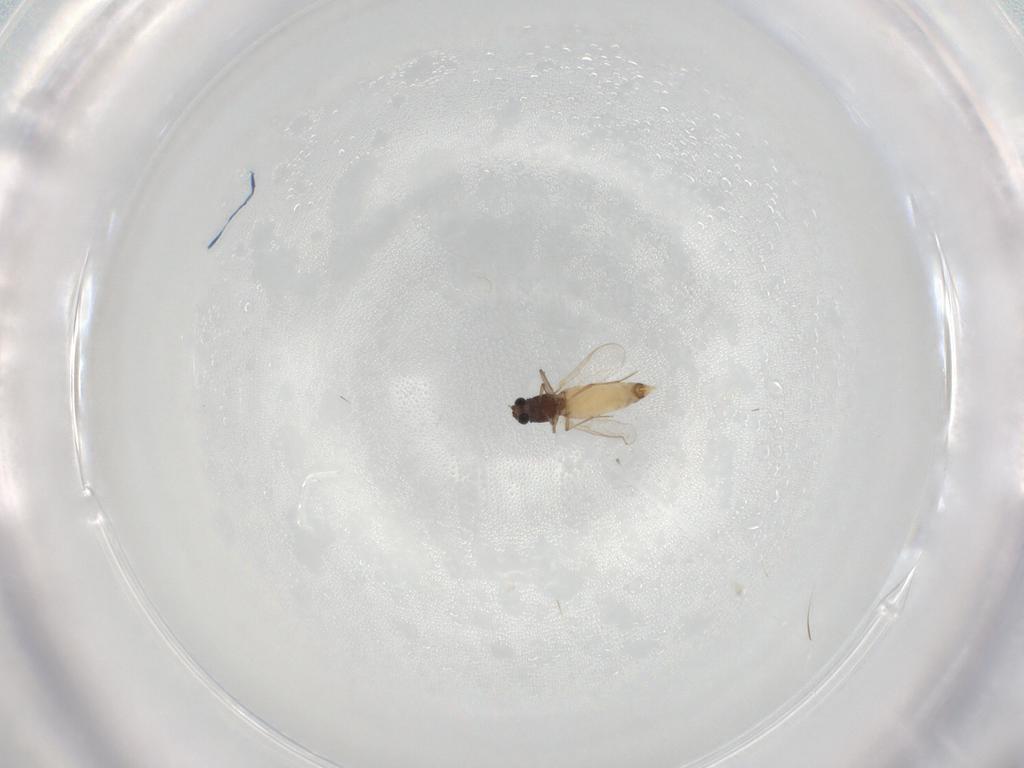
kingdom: Animalia
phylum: Arthropoda
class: Insecta
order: Diptera
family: Chironomidae
